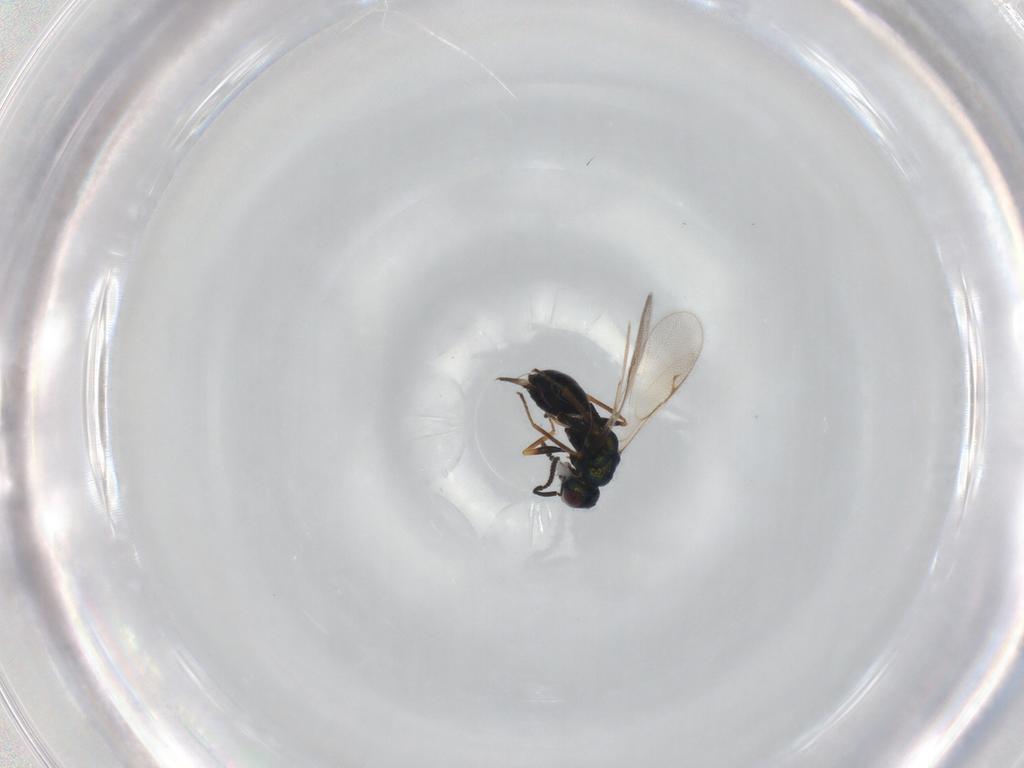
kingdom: Animalia
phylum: Arthropoda
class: Insecta
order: Hymenoptera
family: Pteromalidae
